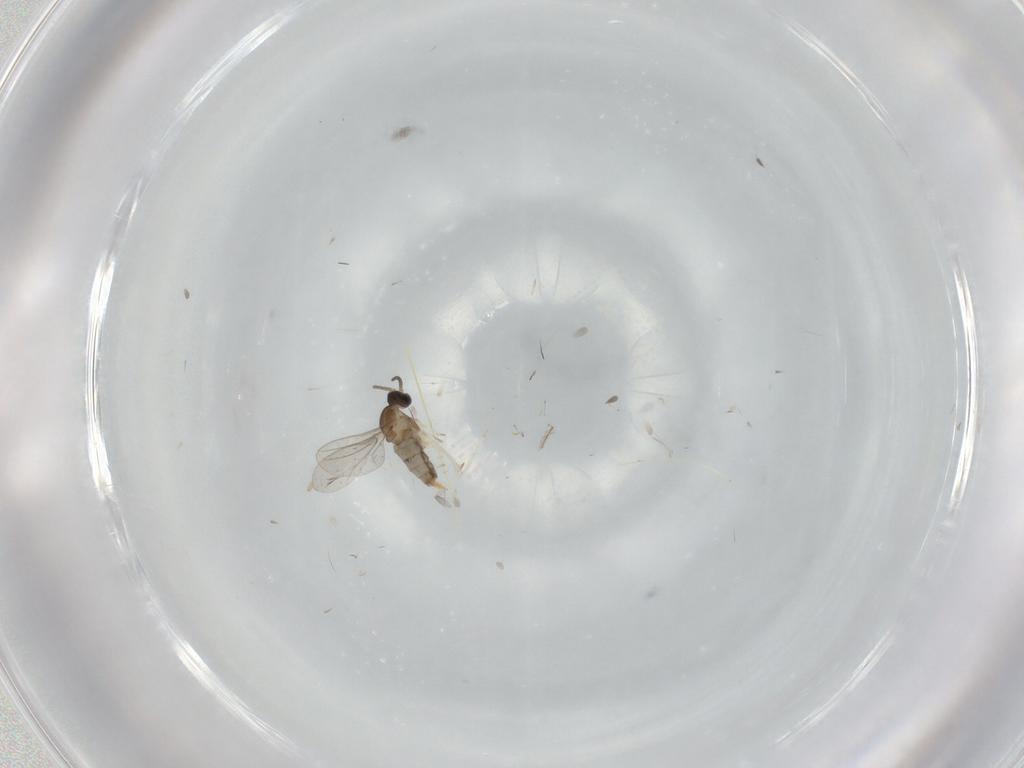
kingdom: Animalia
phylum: Arthropoda
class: Insecta
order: Diptera
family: Cecidomyiidae
